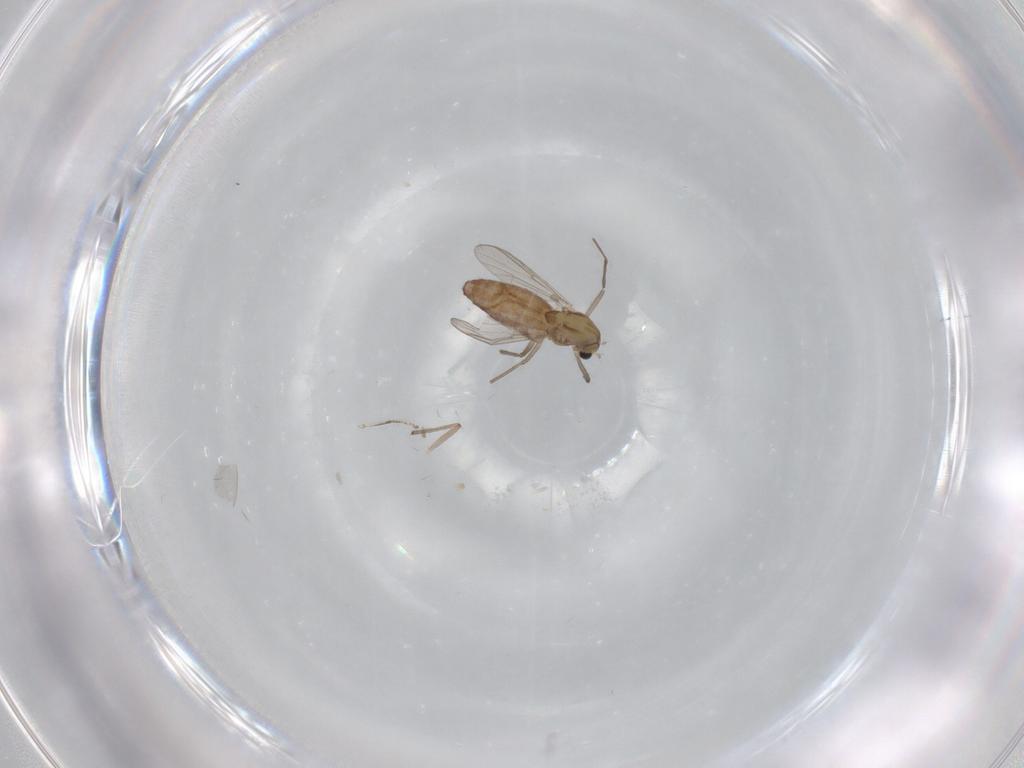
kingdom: Animalia
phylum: Arthropoda
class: Insecta
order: Diptera
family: Chironomidae
